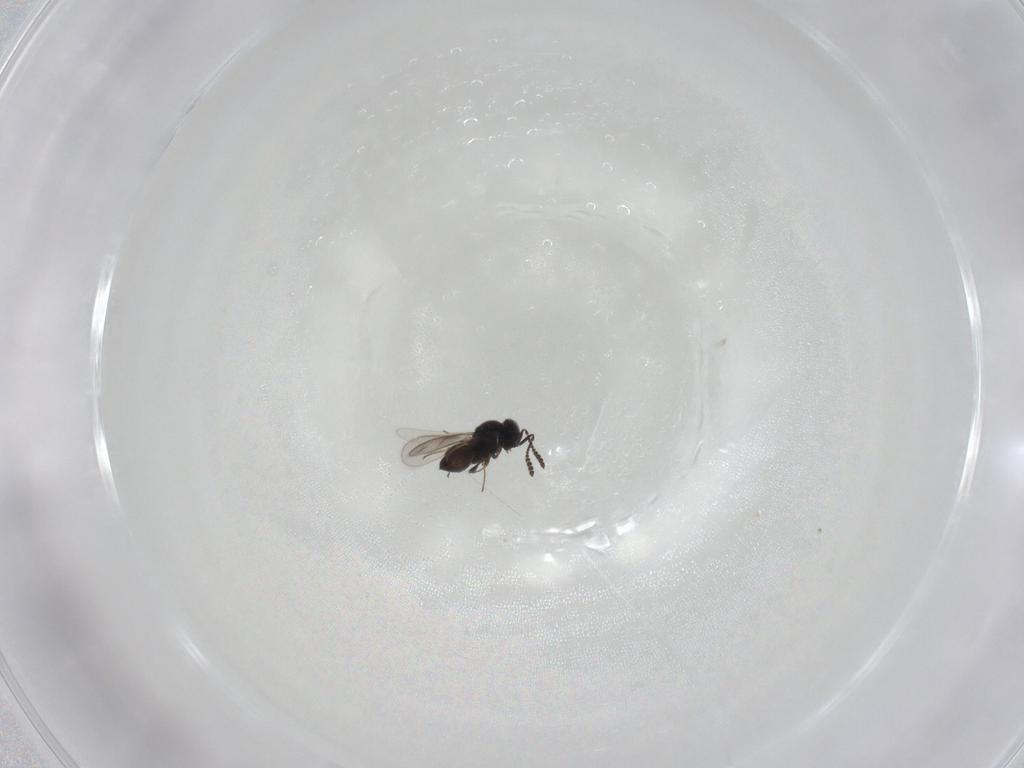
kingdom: Animalia
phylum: Arthropoda
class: Insecta
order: Hymenoptera
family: Scelionidae
